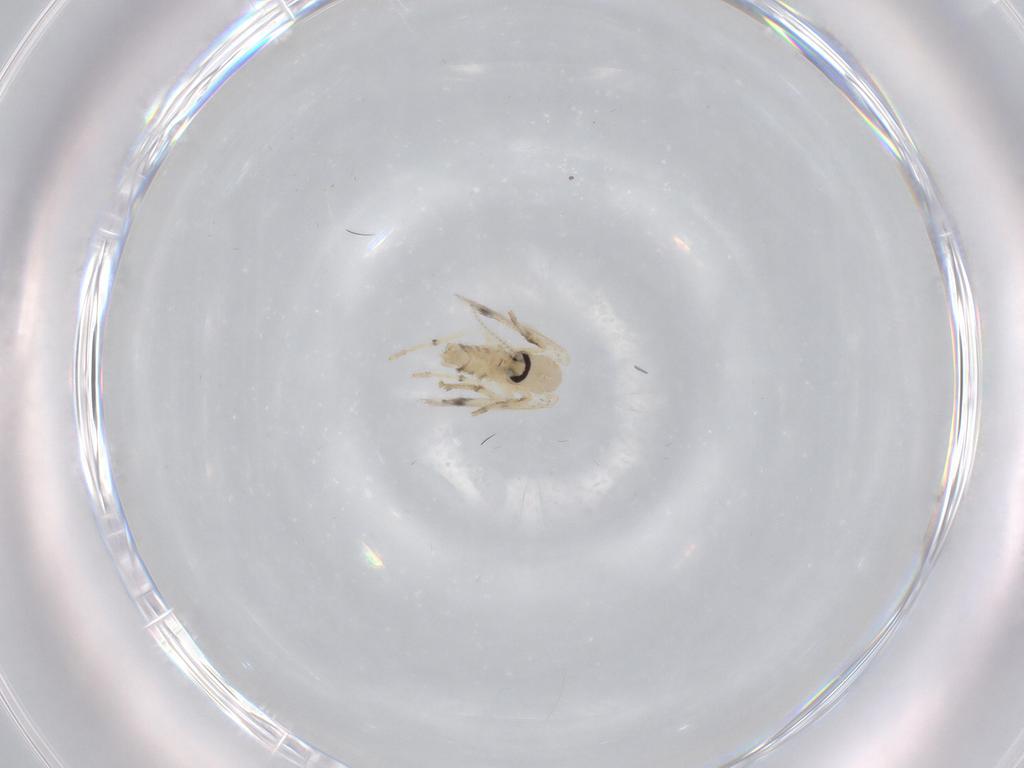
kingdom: Animalia
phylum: Arthropoda
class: Insecta
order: Diptera
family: Psychodidae
